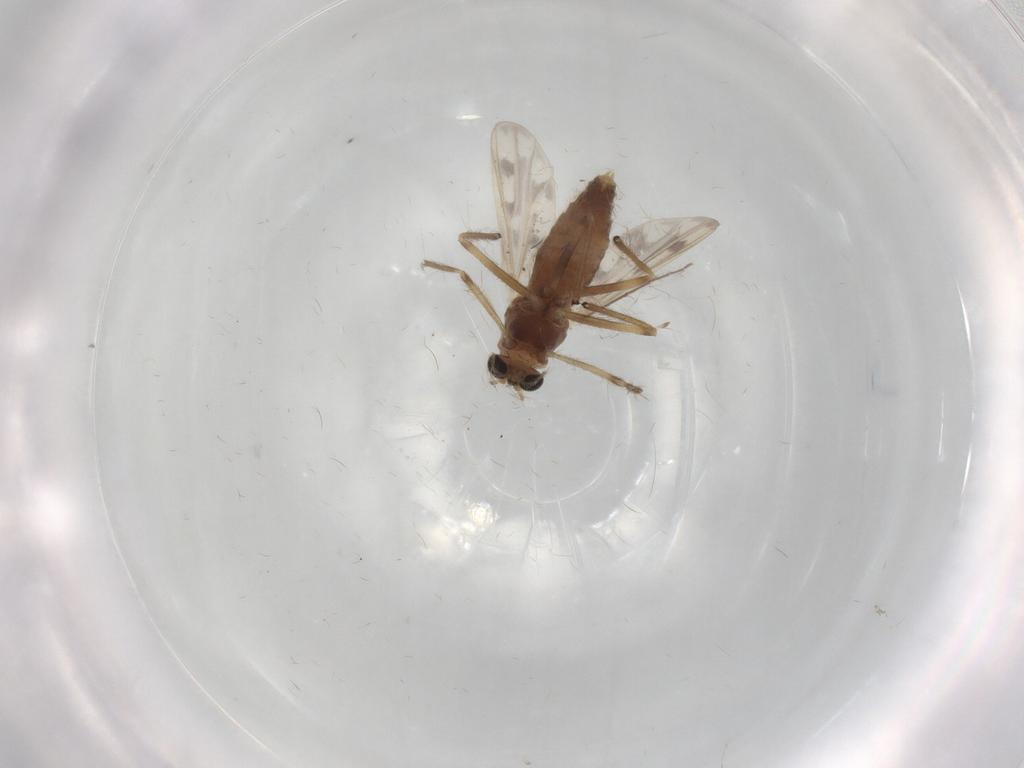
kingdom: Animalia
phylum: Arthropoda
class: Insecta
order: Diptera
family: Chironomidae
